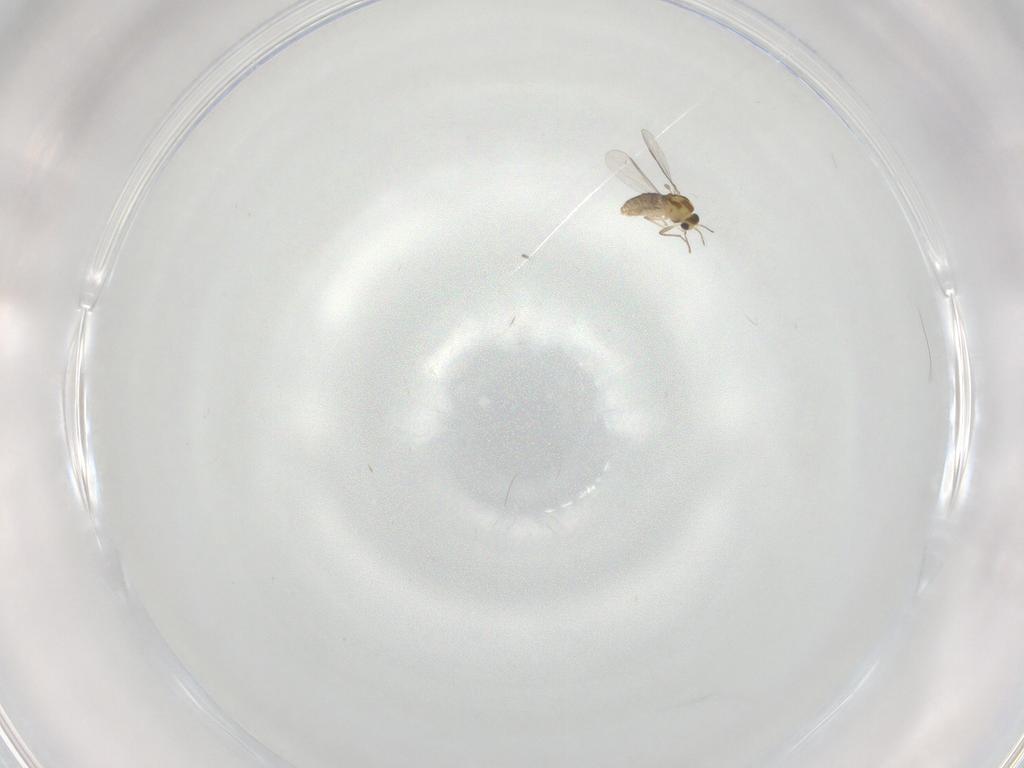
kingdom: Animalia
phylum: Arthropoda
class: Insecta
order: Diptera
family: Chironomidae
